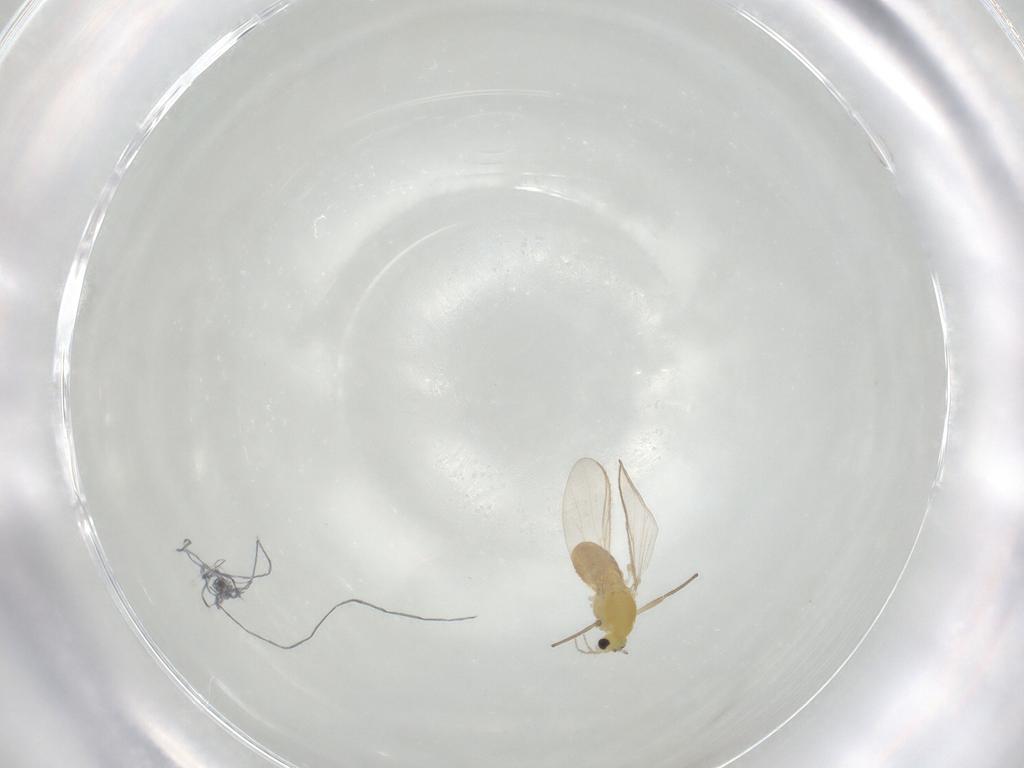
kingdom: Animalia
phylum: Arthropoda
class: Insecta
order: Diptera
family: Chironomidae
